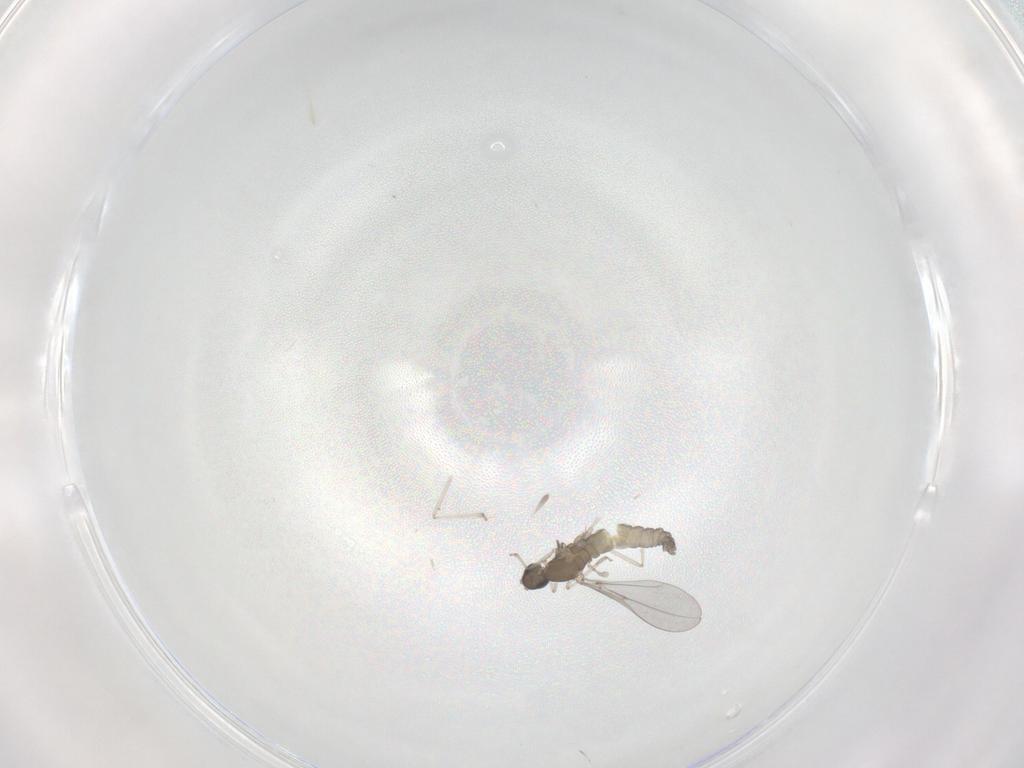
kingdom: Animalia
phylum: Arthropoda
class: Insecta
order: Diptera
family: Cecidomyiidae
